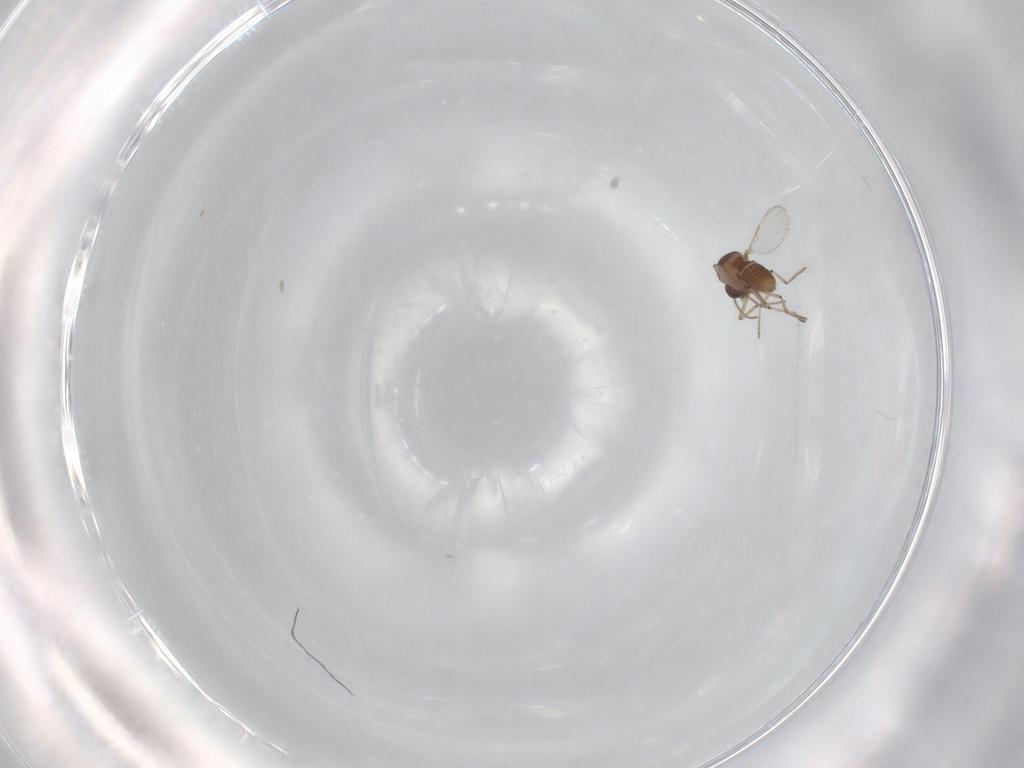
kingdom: Animalia
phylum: Arthropoda
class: Insecta
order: Diptera
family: Ceratopogonidae
